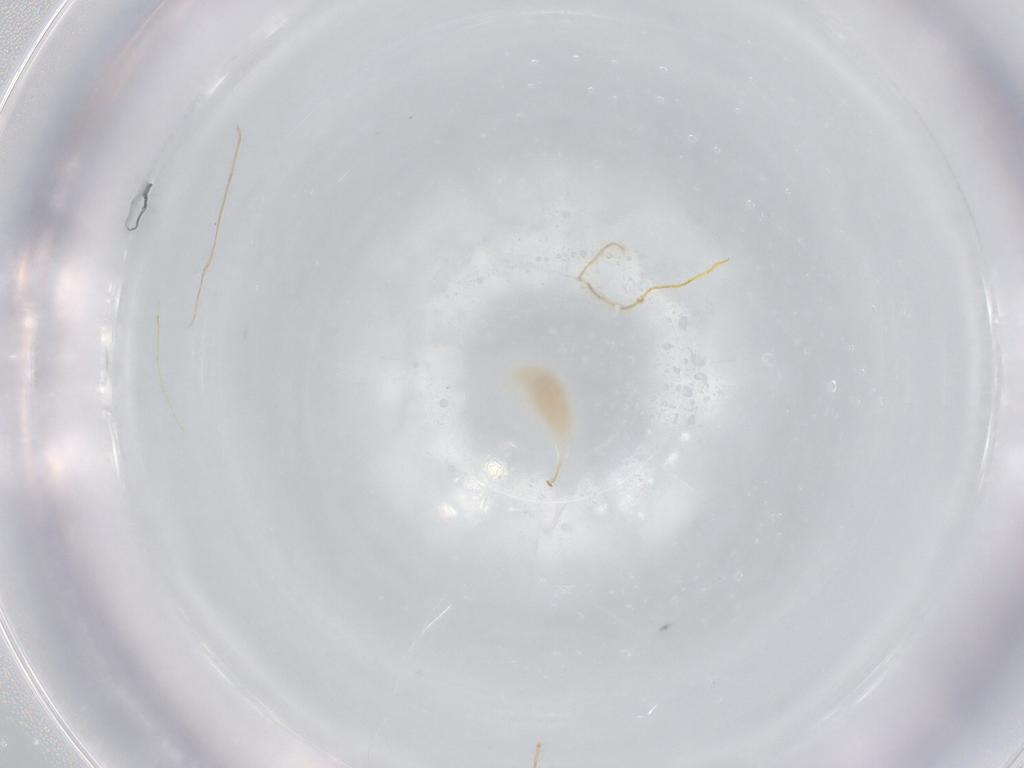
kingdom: Animalia
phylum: Arthropoda
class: Insecta
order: Hymenoptera
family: Ichneumonidae
